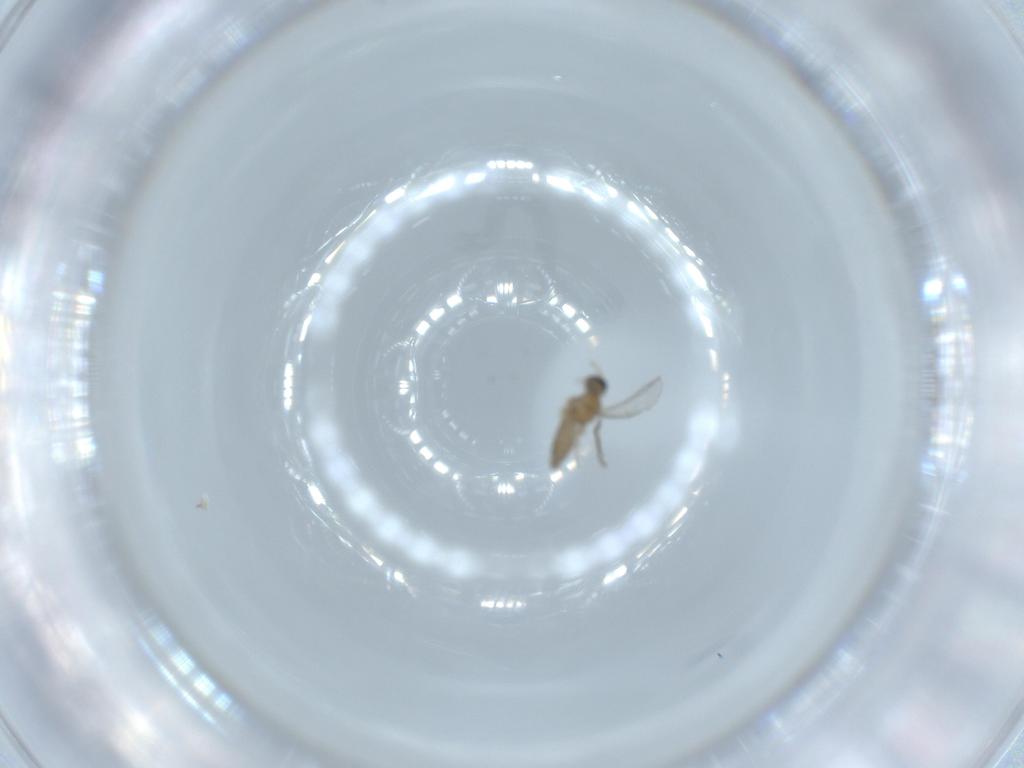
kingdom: Animalia
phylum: Arthropoda
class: Insecta
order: Diptera
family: Cecidomyiidae
